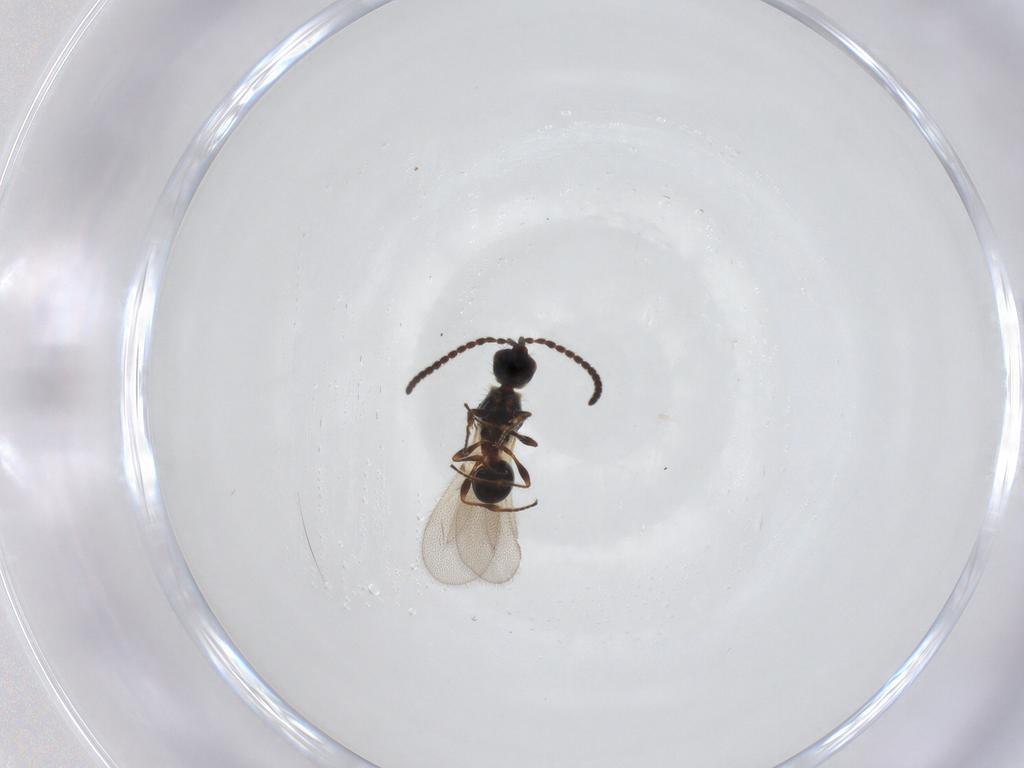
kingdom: Animalia
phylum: Arthropoda
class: Insecta
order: Hymenoptera
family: Diapriidae
